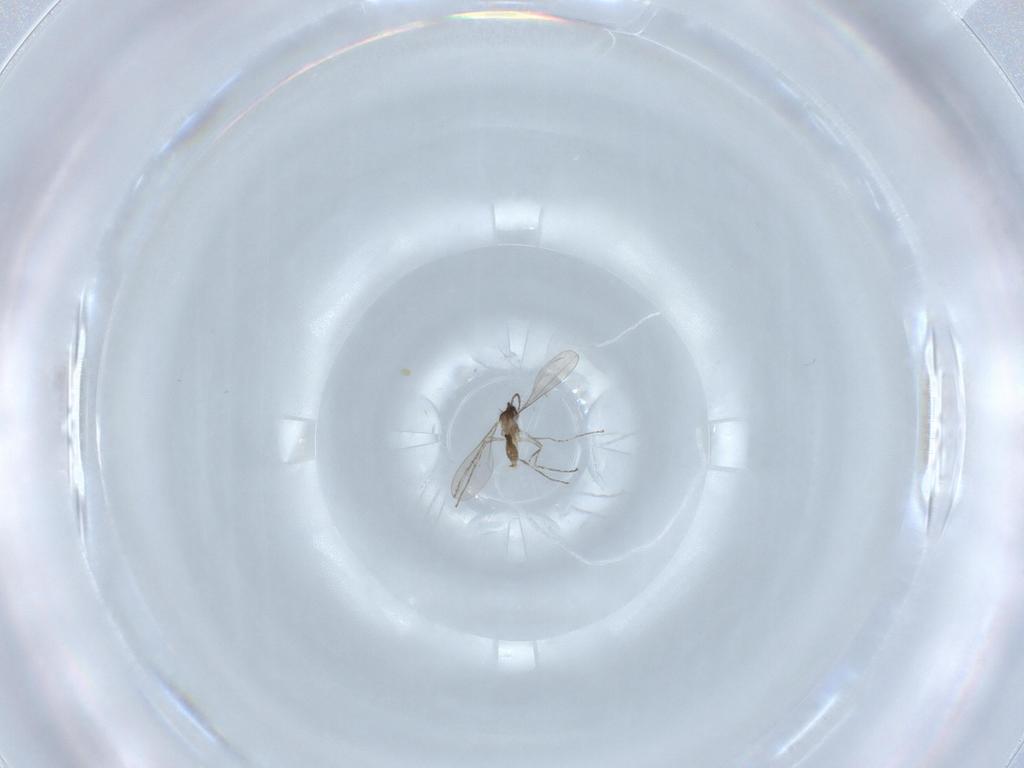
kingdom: Animalia
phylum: Arthropoda
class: Insecta
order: Diptera
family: Cecidomyiidae
